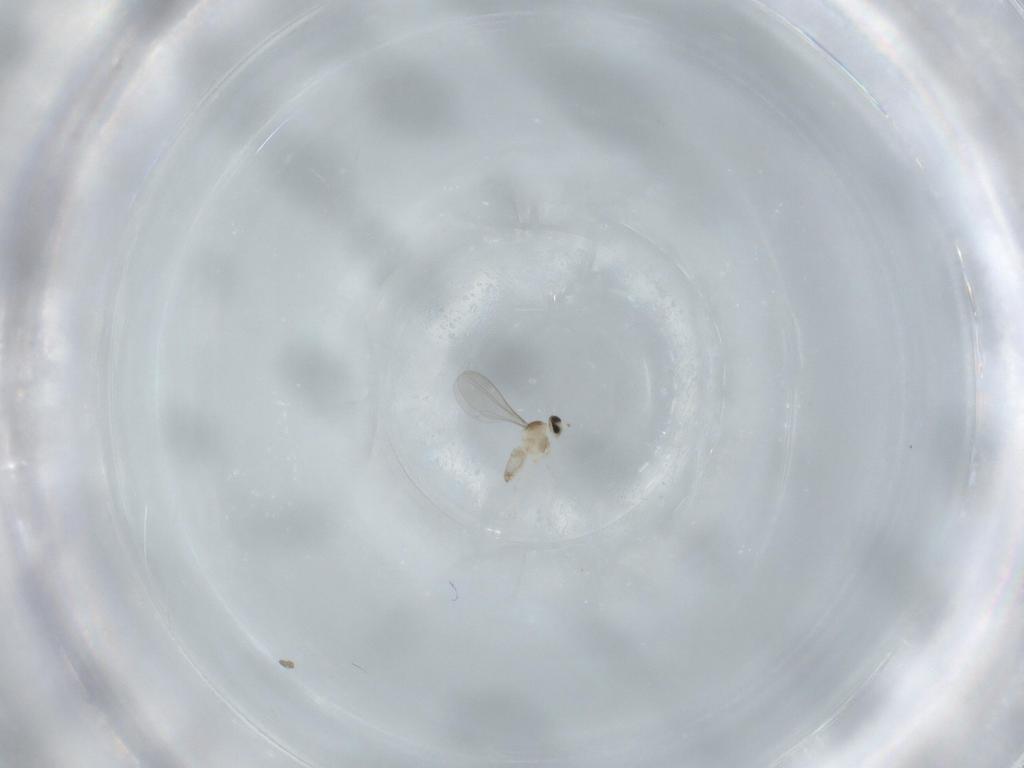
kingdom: Animalia
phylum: Arthropoda
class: Insecta
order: Diptera
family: Cecidomyiidae
